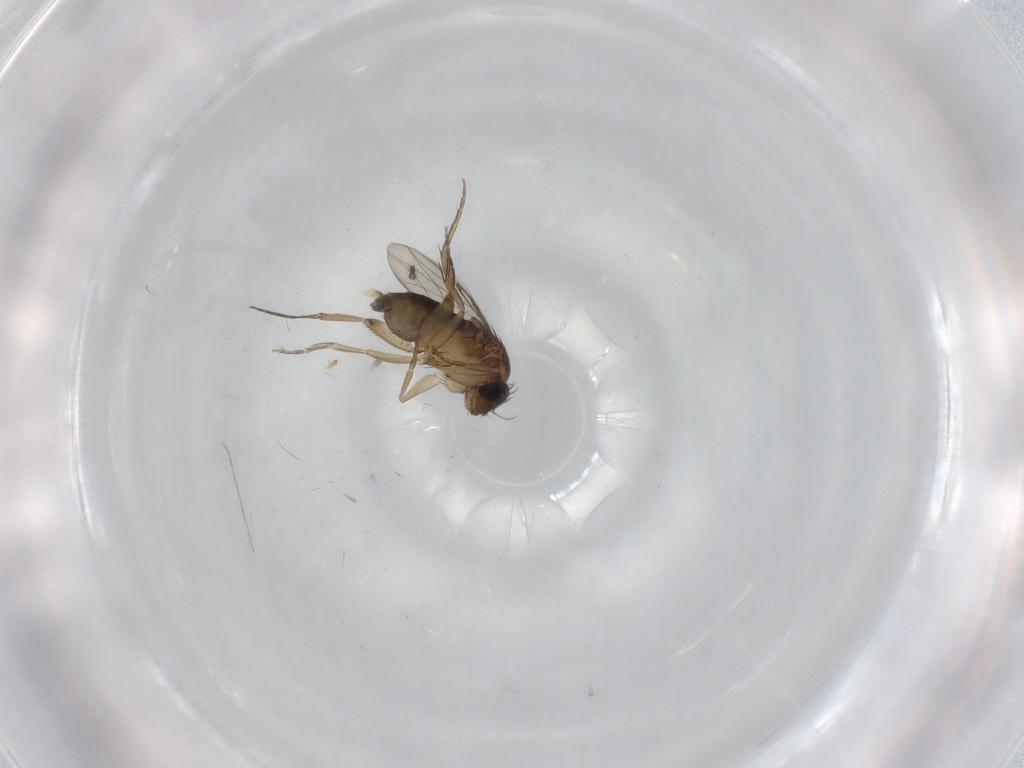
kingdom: Animalia
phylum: Arthropoda
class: Insecta
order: Diptera
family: Phoridae
